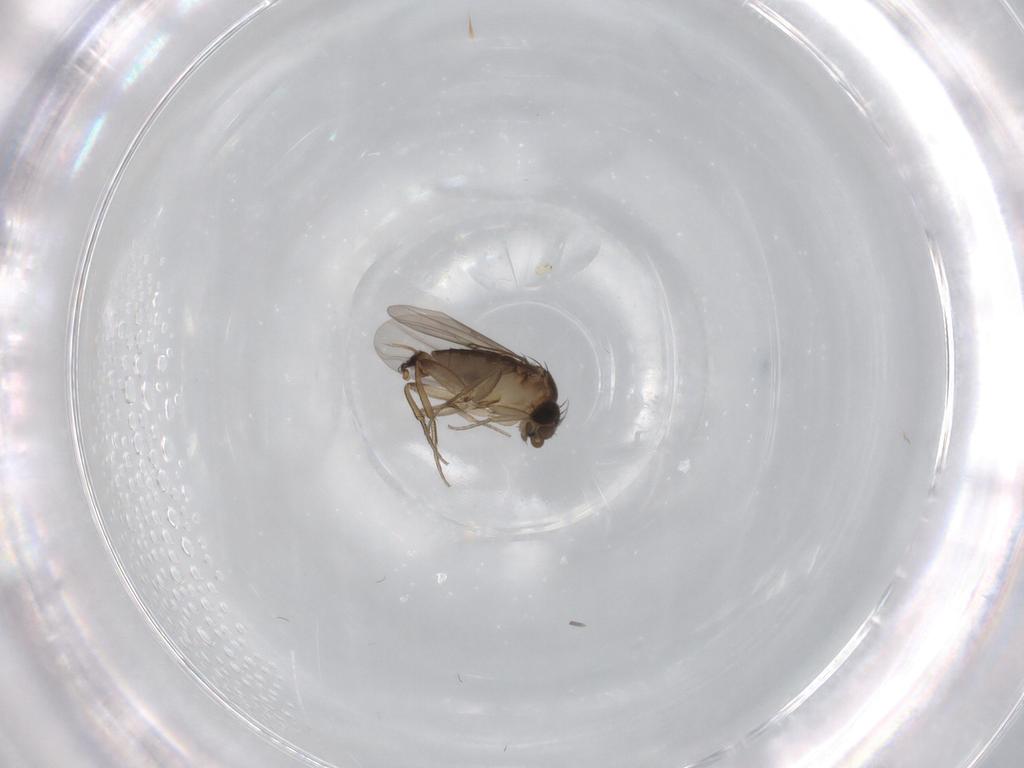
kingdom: Animalia
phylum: Arthropoda
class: Insecta
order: Diptera
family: Phoridae
